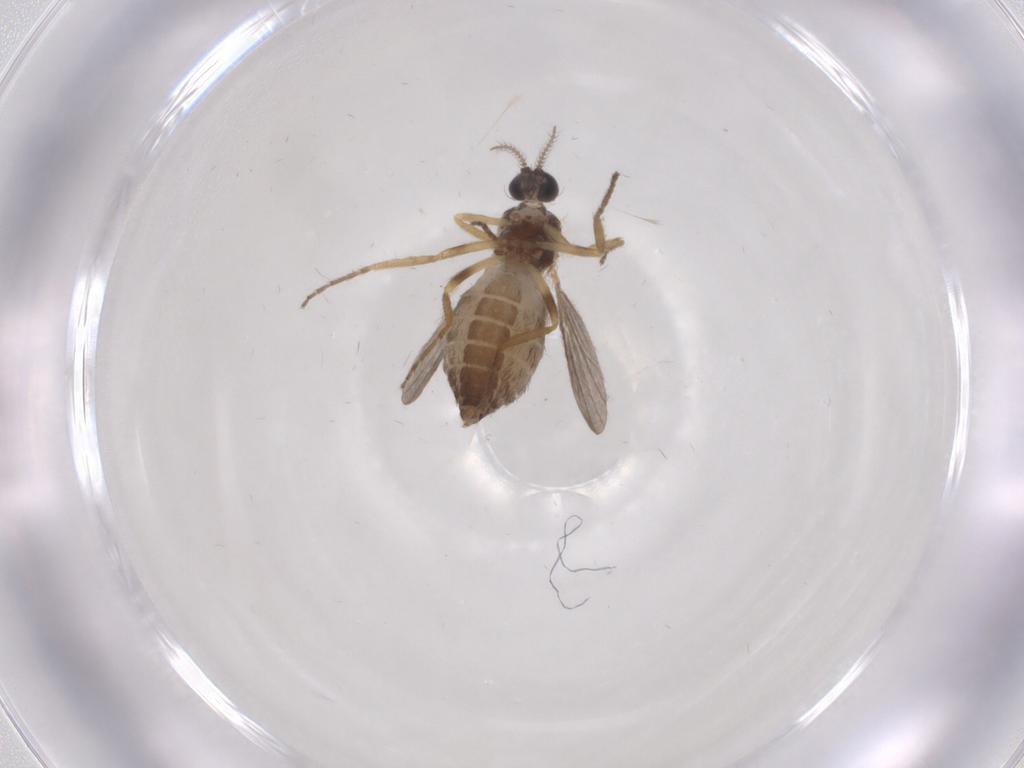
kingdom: Animalia
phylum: Arthropoda
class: Insecta
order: Diptera
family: Ceratopogonidae
